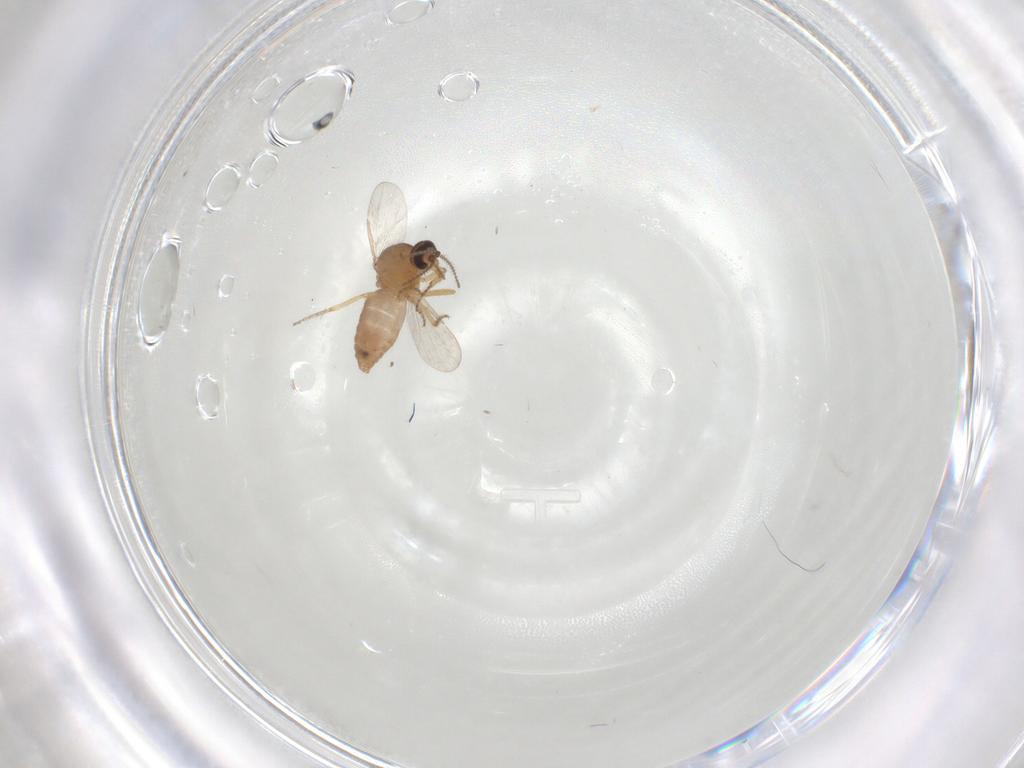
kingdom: Animalia
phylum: Arthropoda
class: Insecta
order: Diptera
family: Ceratopogonidae
